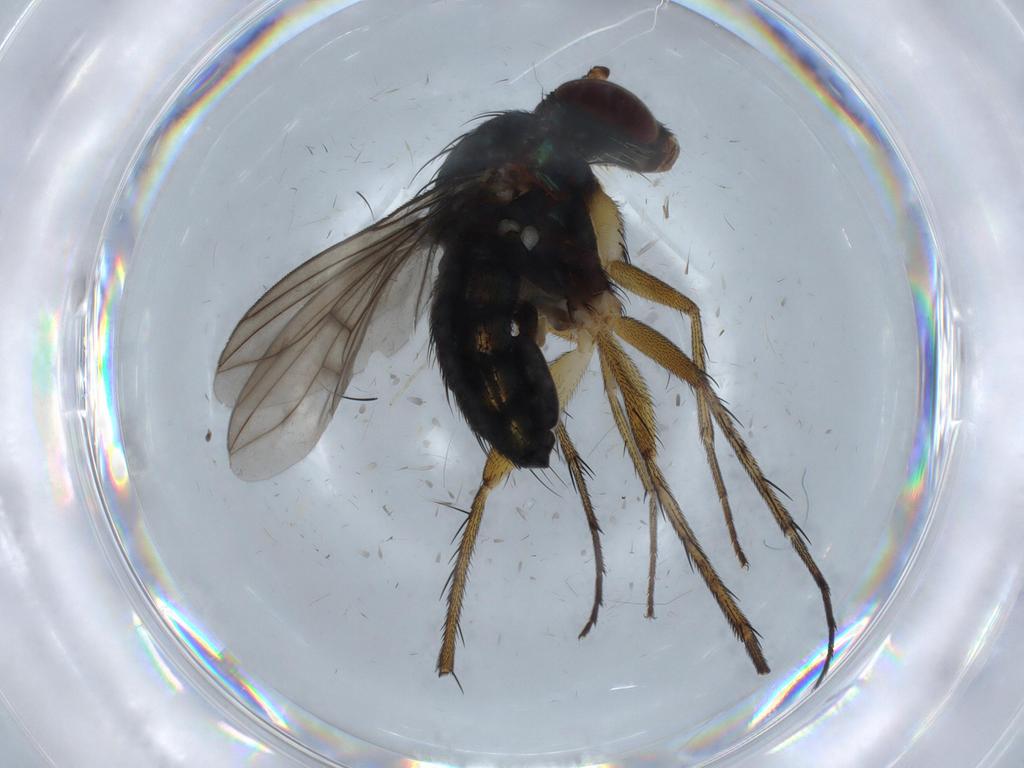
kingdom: Animalia
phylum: Arthropoda
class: Insecta
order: Diptera
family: Dolichopodidae
